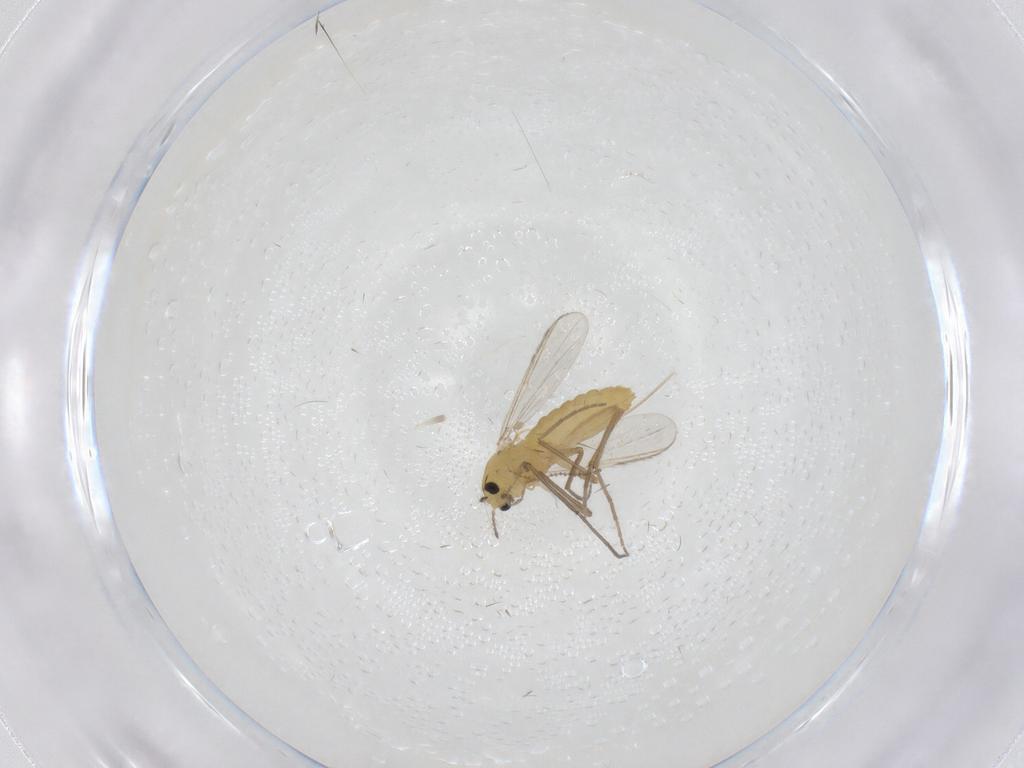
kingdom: Animalia
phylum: Arthropoda
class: Insecta
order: Diptera
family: Chironomidae
